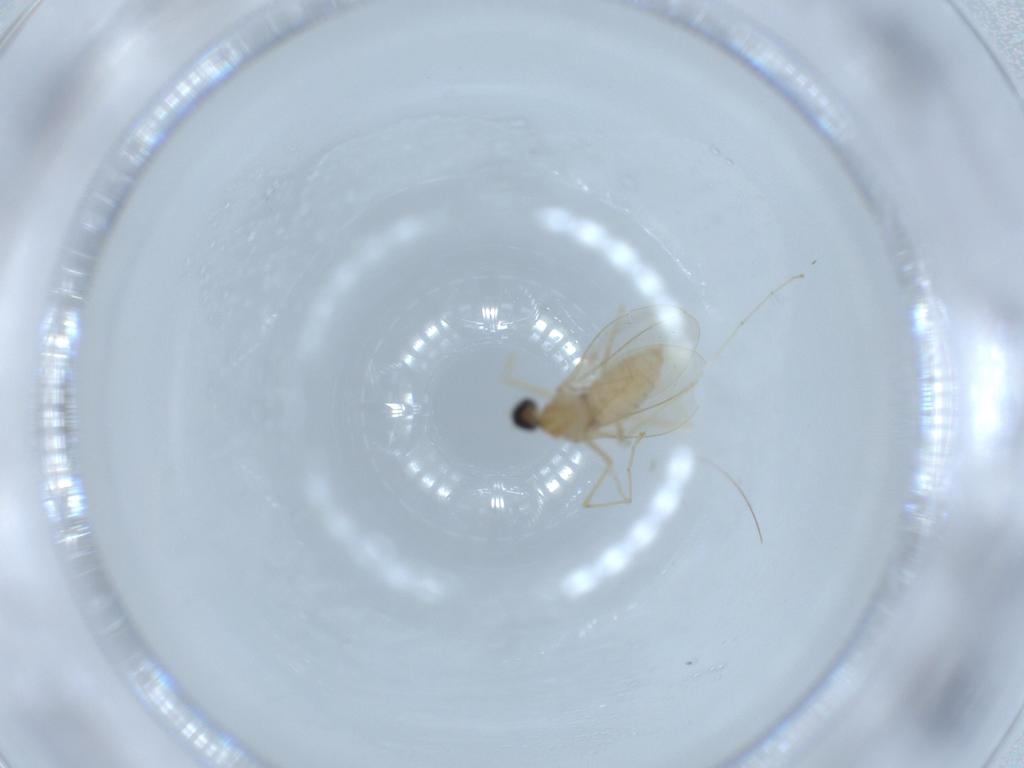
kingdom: Animalia
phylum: Arthropoda
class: Insecta
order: Diptera
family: Cecidomyiidae
